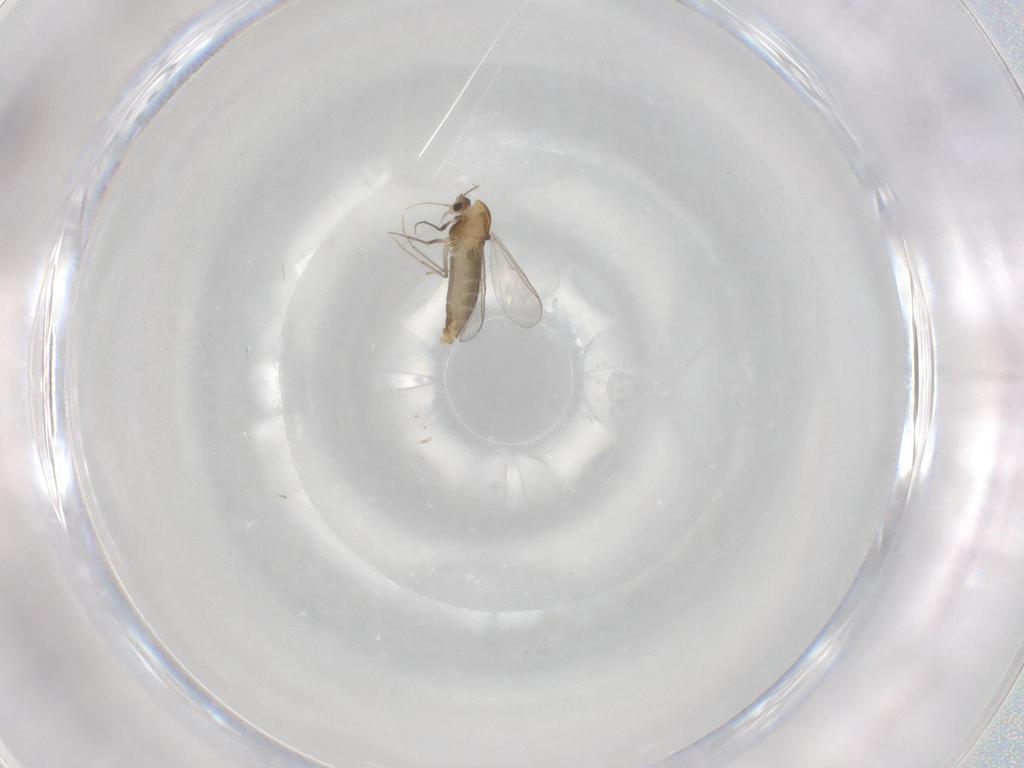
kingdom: Animalia
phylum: Arthropoda
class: Insecta
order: Diptera
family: Chironomidae
